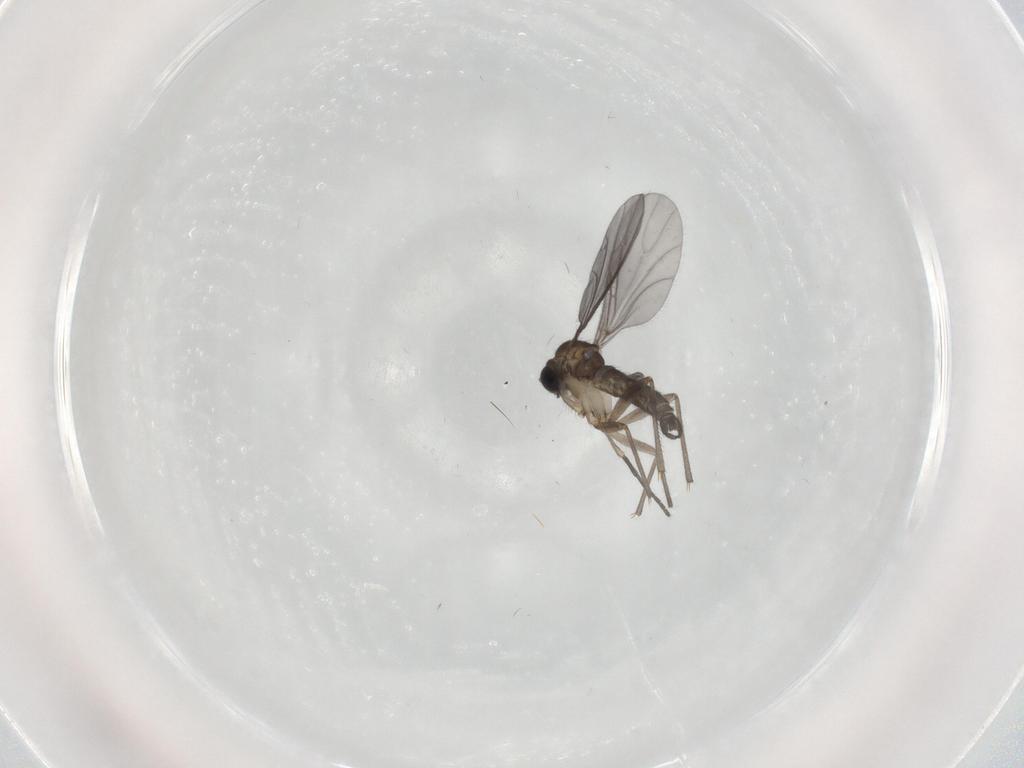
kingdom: Animalia
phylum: Arthropoda
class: Insecta
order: Diptera
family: Sciaridae
